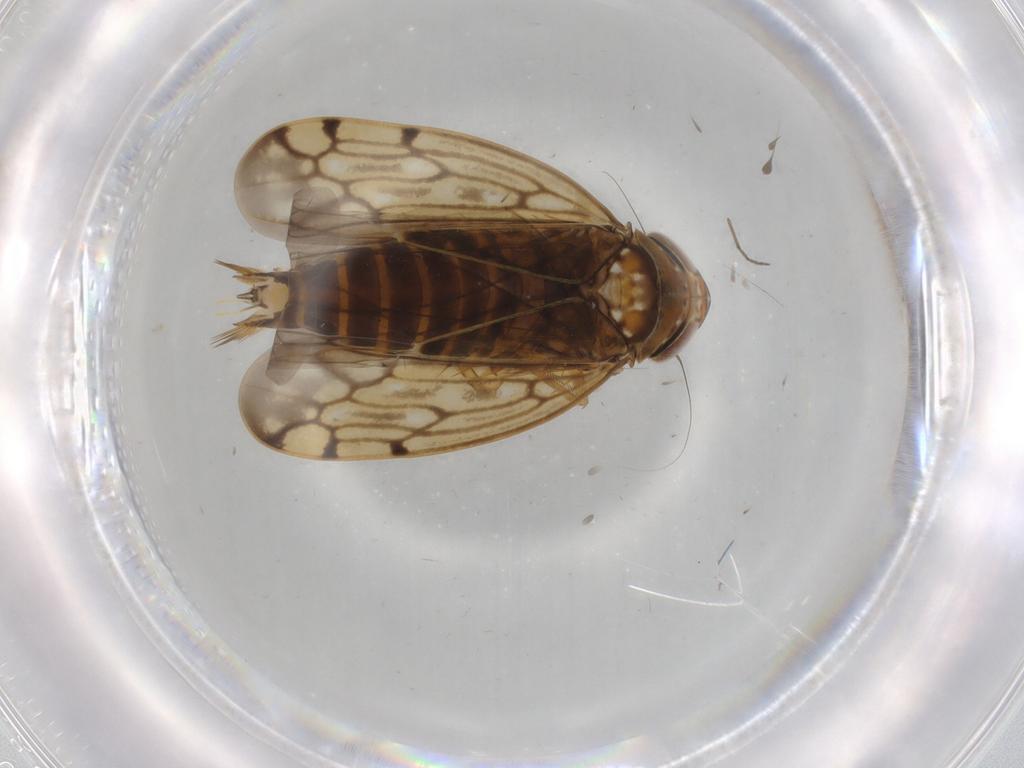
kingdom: Animalia
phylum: Arthropoda
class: Insecta
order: Hemiptera
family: Cicadellidae
